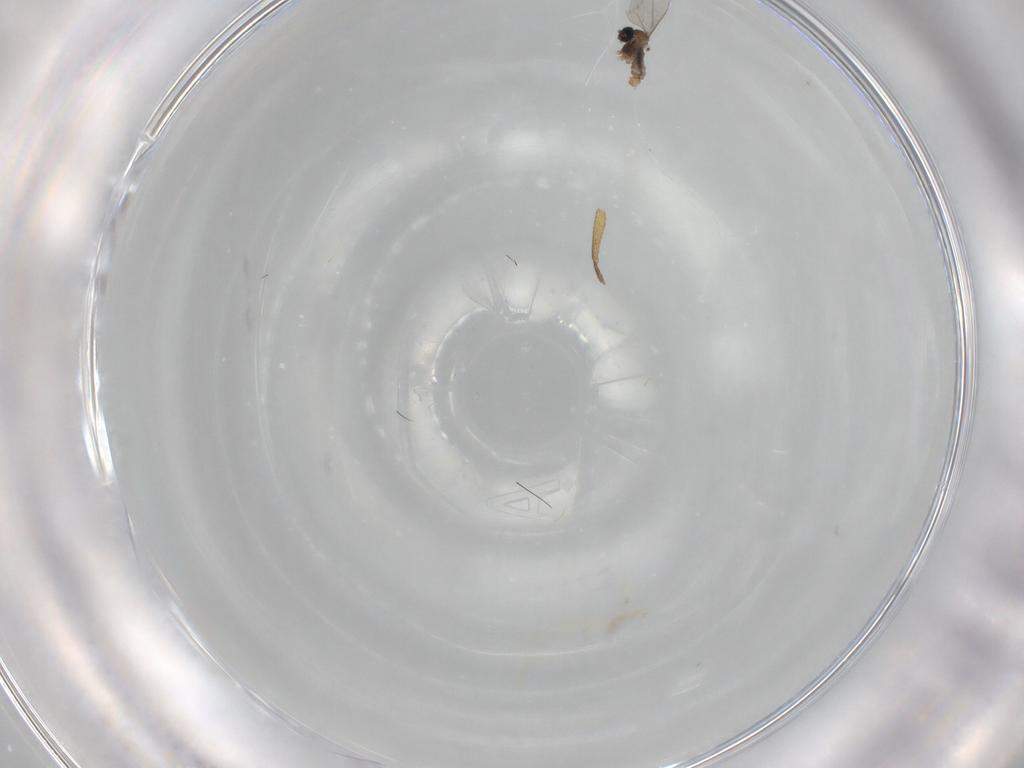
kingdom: Animalia
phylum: Arthropoda
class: Insecta
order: Diptera
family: Cecidomyiidae
